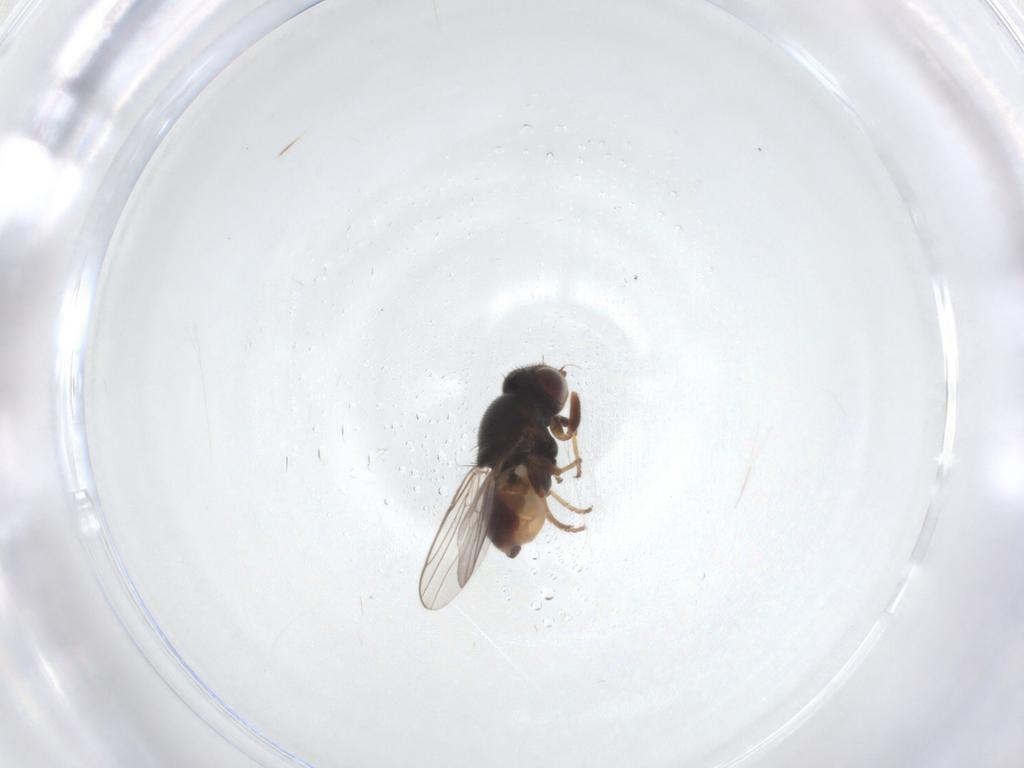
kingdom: Animalia
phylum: Arthropoda
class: Insecta
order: Diptera
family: Chloropidae
